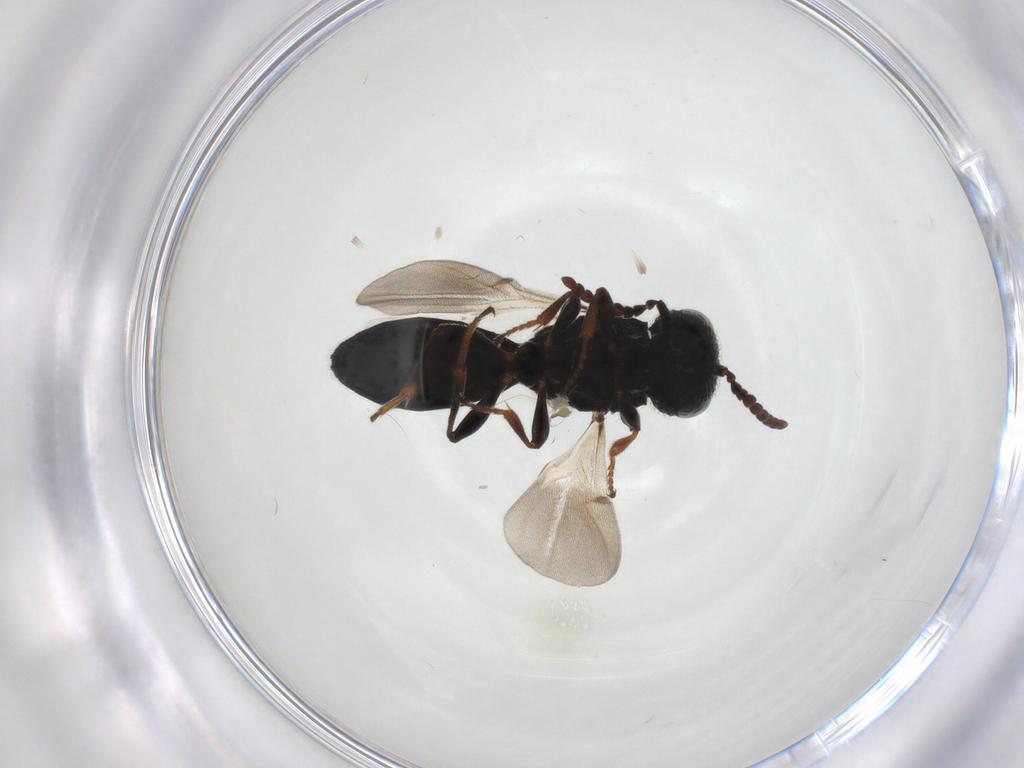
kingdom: Animalia
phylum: Arthropoda
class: Insecta
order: Hymenoptera
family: Scelionidae
